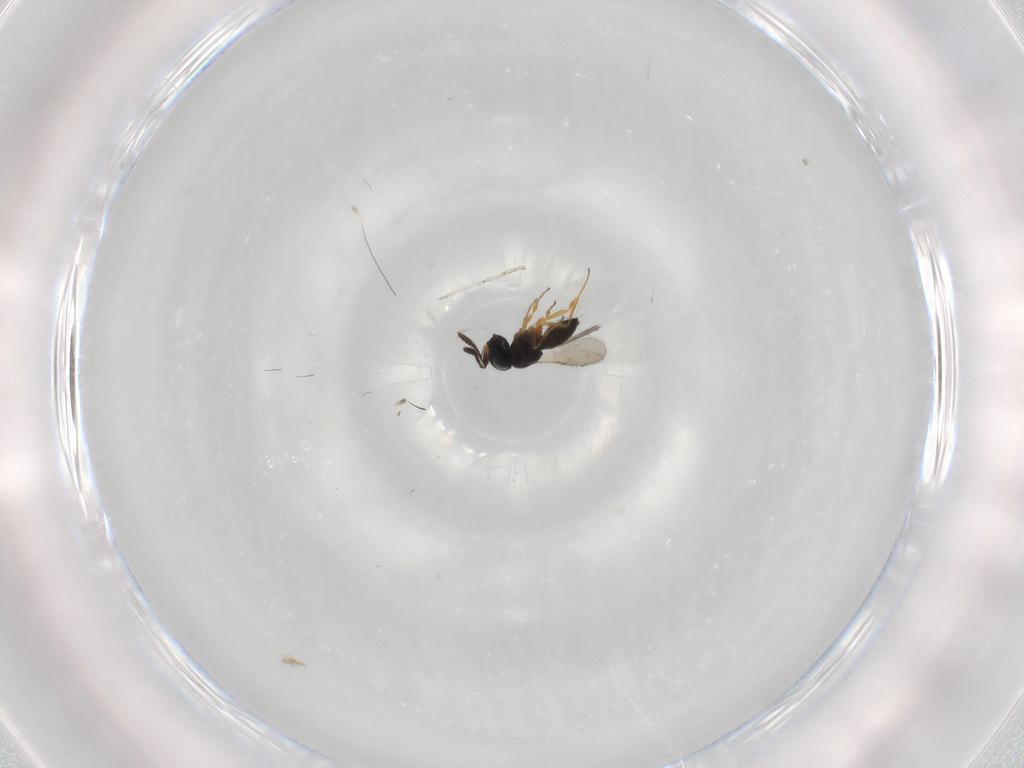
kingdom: Animalia
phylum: Arthropoda
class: Insecta
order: Hymenoptera
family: Scelionidae
